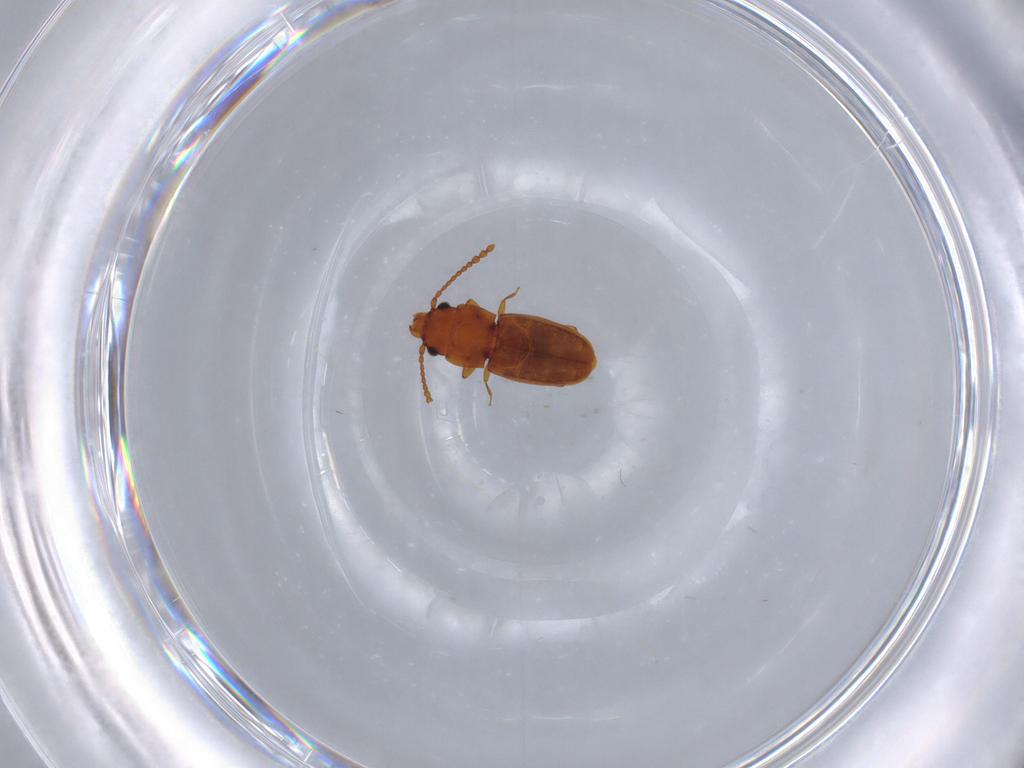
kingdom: Animalia
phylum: Arthropoda
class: Insecta
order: Coleoptera
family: Laemophloeidae
